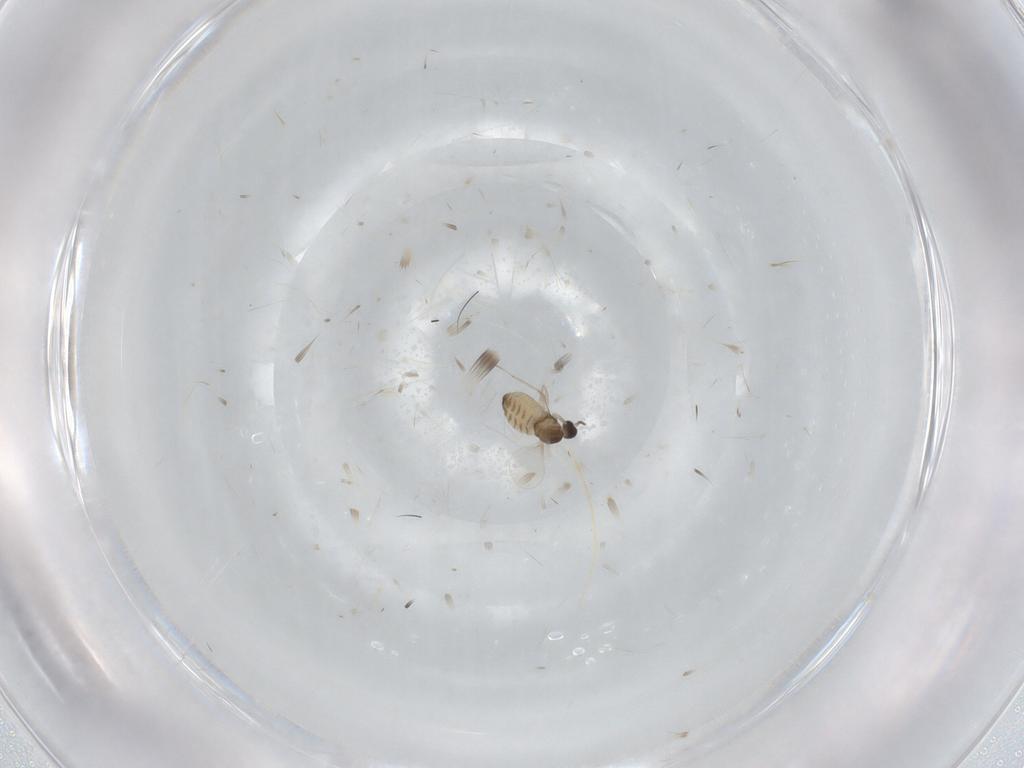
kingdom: Animalia
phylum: Arthropoda
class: Insecta
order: Diptera
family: Cecidomyiidae
